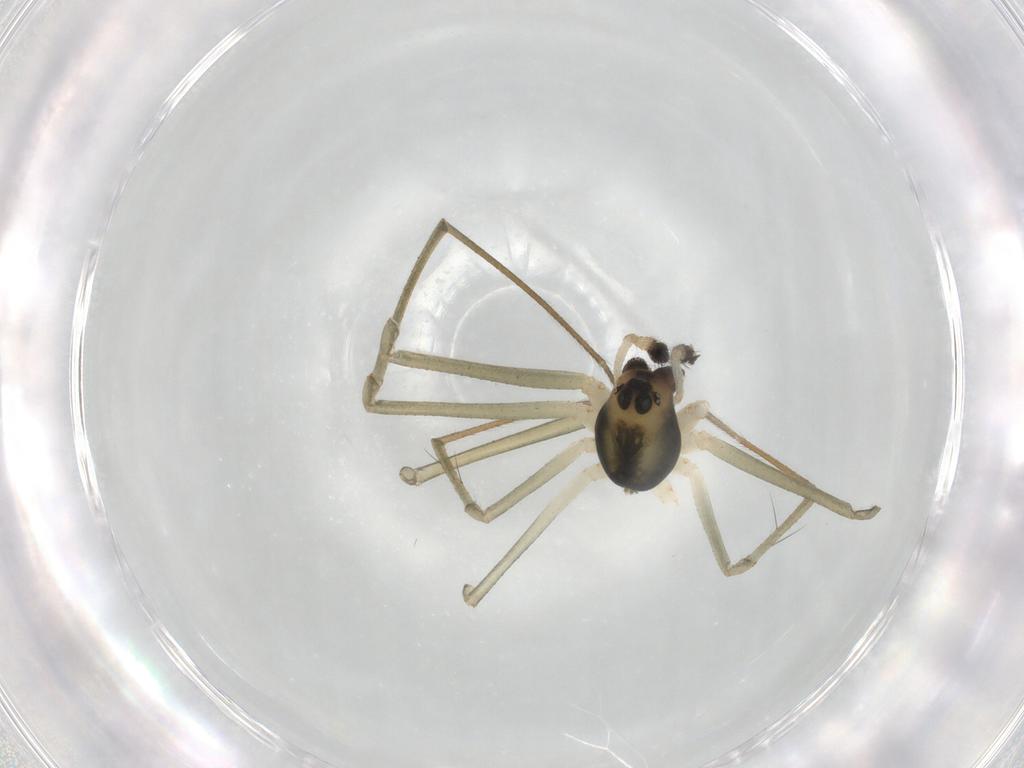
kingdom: Animalia
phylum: Arthropoda
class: Arachnida
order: Araneae
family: Linyphiidae
